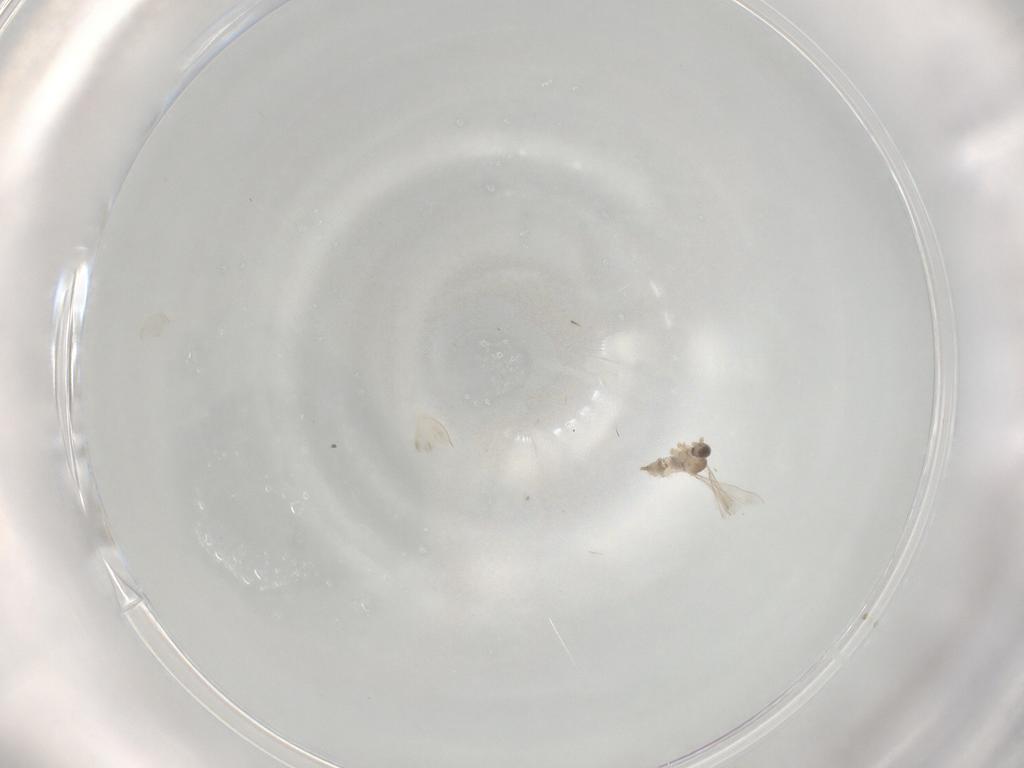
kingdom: Animalia
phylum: Arthropoda
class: Insecta
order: Diptera
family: Cecidomyiidae
